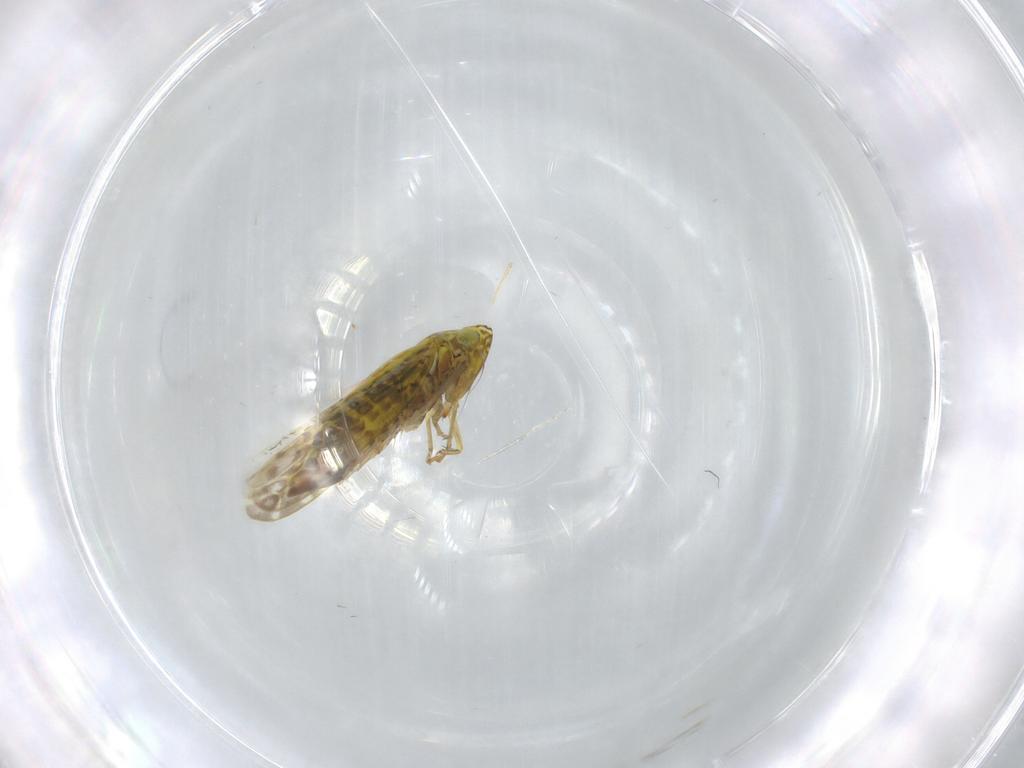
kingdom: Animalia
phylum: Arthropoda
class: Insecta
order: Hemiptera
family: Cicadellidae
